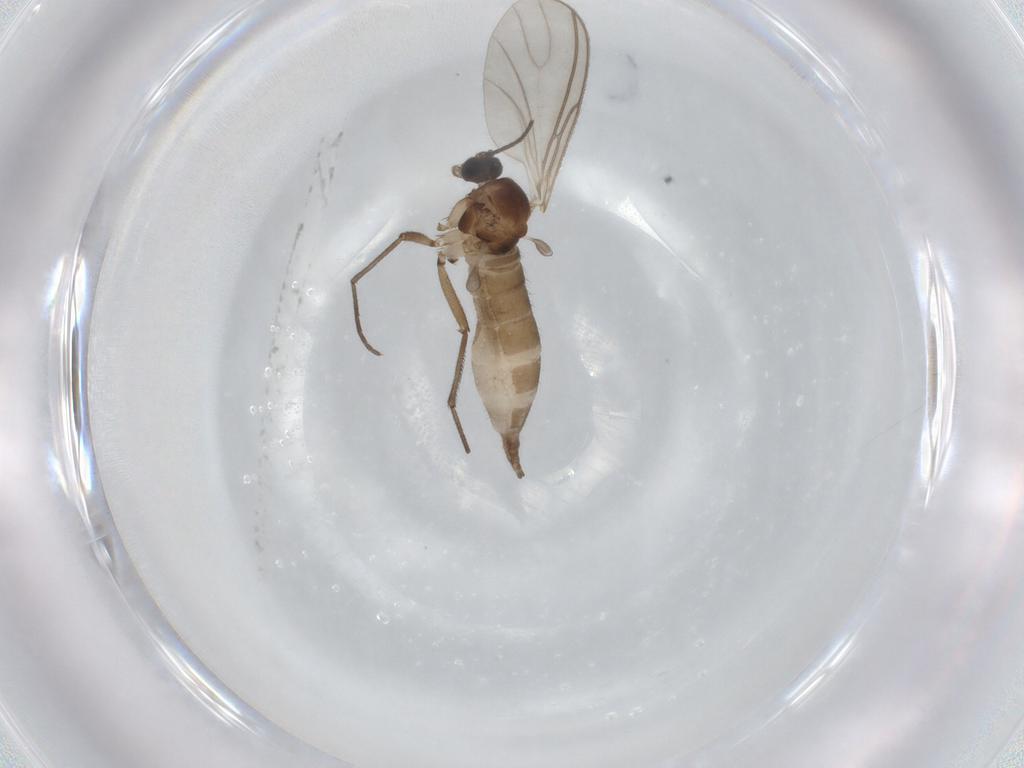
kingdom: Animalia
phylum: Arthropoda
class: Insecta
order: Diptera
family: Sciaridae
